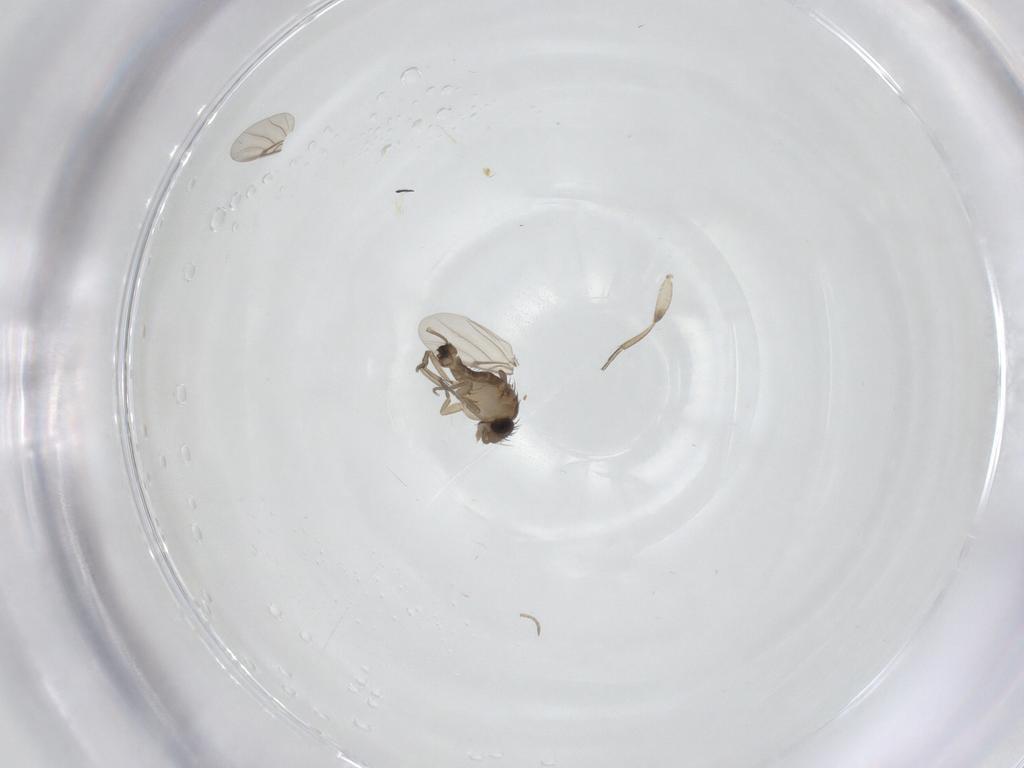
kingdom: Animalia
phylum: Arthropoda
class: Insecta
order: Diptera
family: Phoridae
